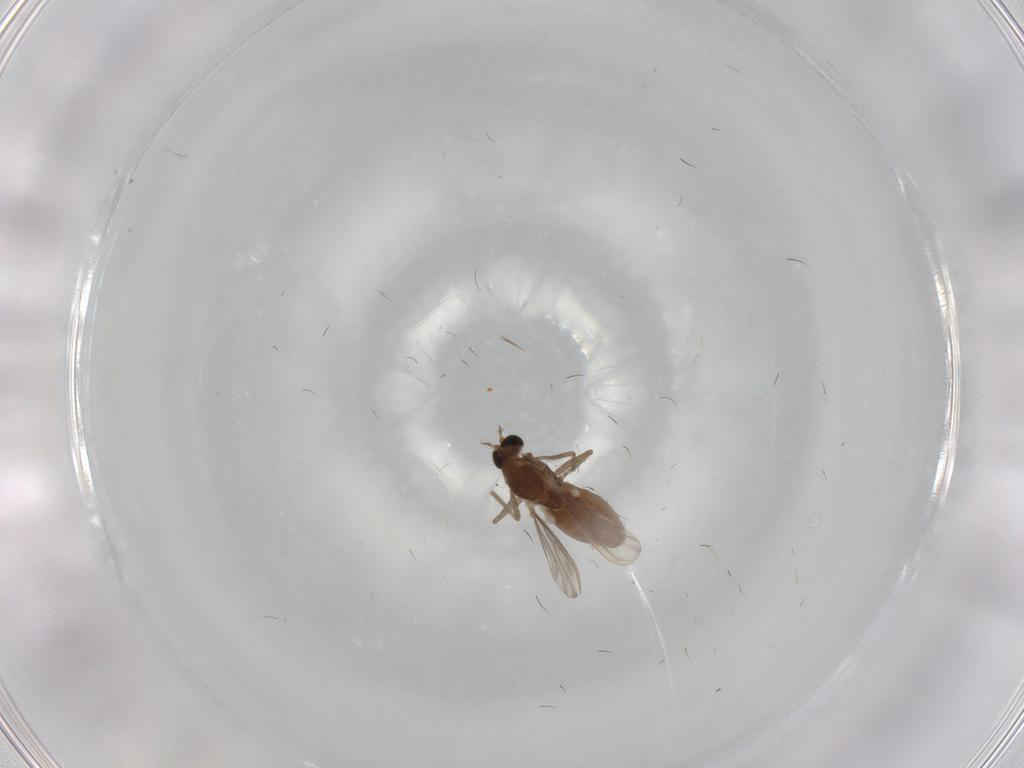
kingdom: Animalia
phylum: Arthropoda
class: Insecta
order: Diptera
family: Chironomidae
